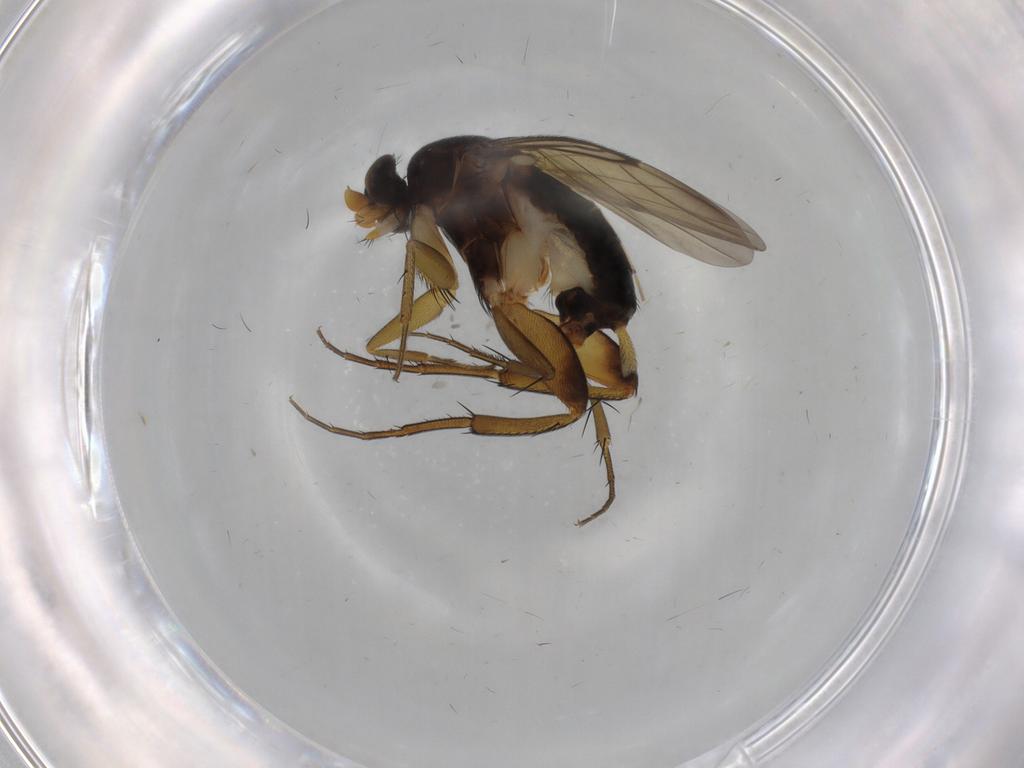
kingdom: Animalia
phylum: Arthropoda
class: Insecta
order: Diptera
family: Phoridae
